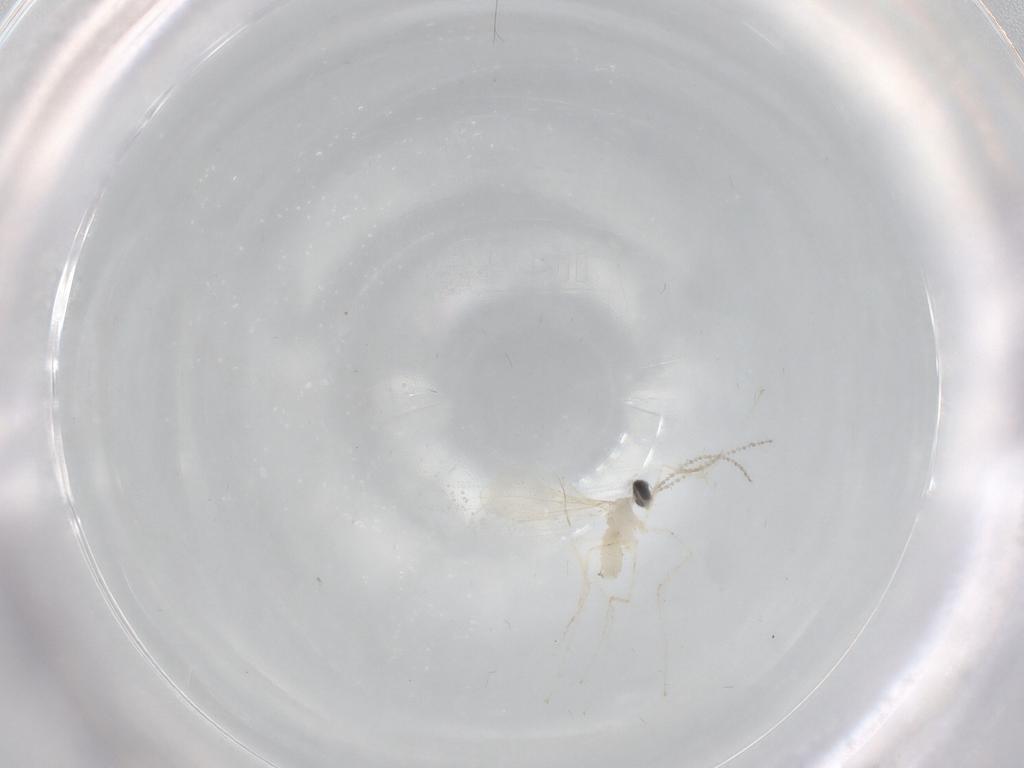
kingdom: Animalia
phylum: Arthropoda
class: Insecta
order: Diptera
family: Cecidomyiidae
